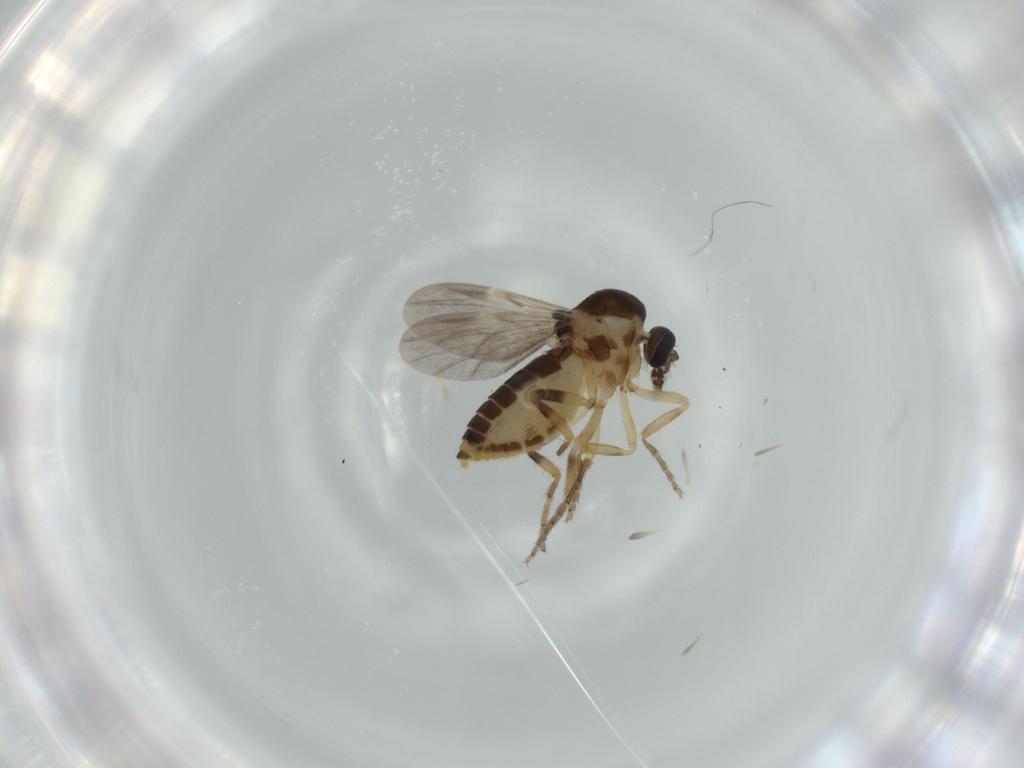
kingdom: Animalia
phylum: Arthropoda
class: Insecta
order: Diptera
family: Ceratopogonidae
